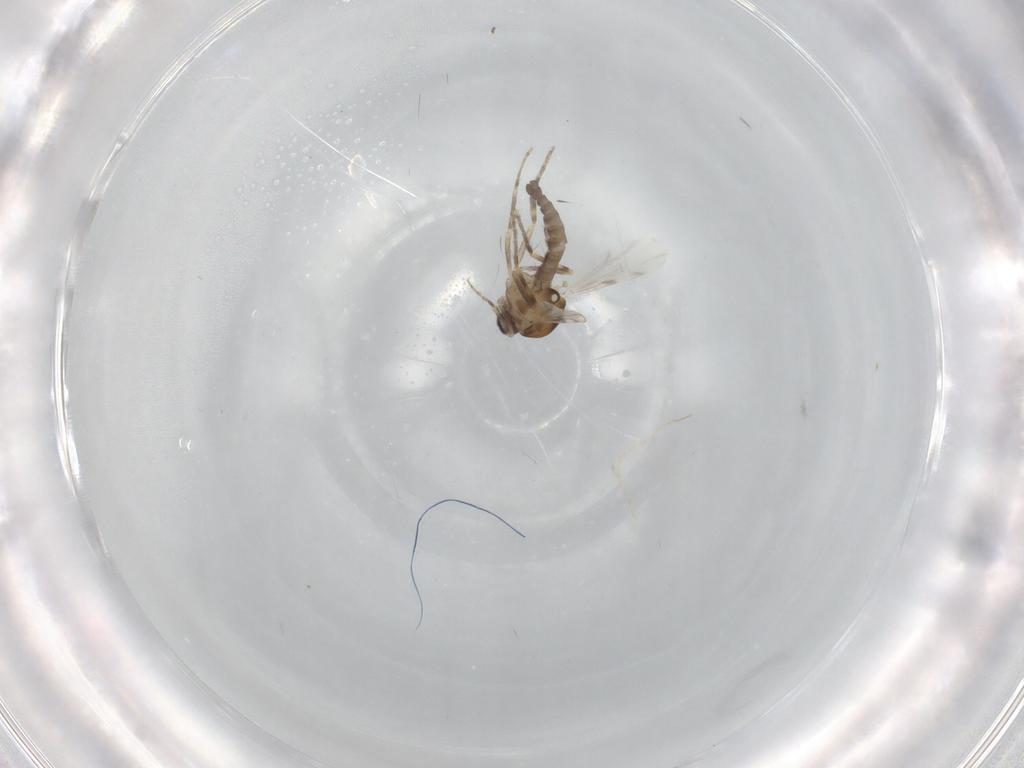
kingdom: Animalia
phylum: Arthropoda
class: Insecta
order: Diptera
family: Ceratopogonidae
